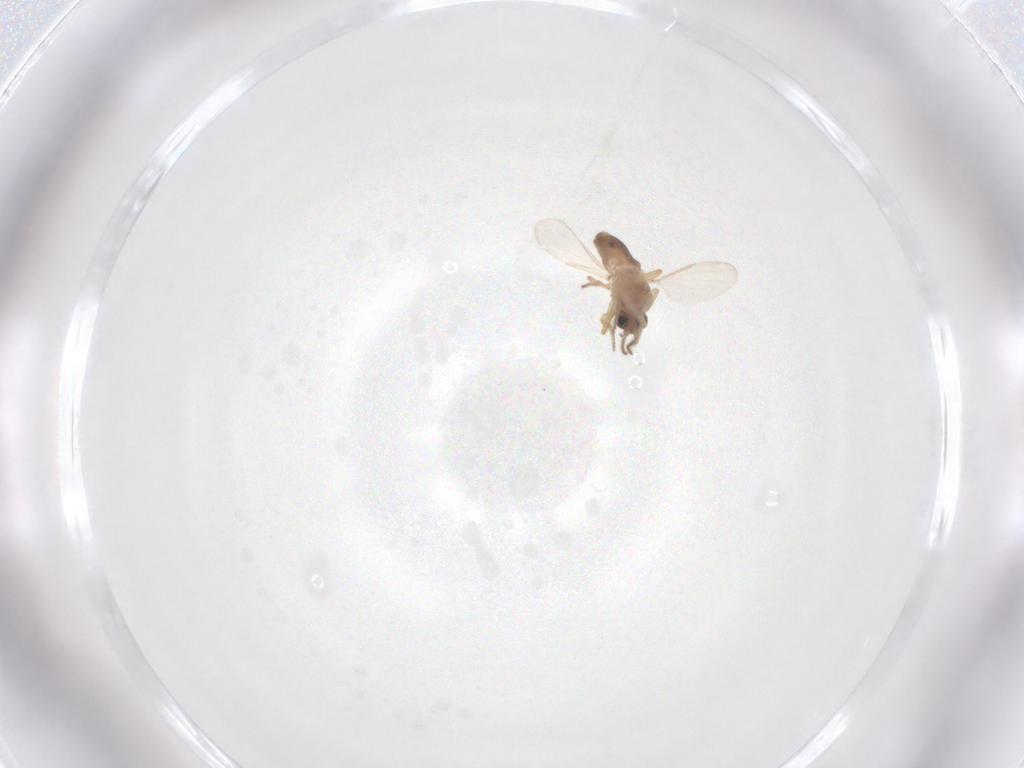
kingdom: Animalia
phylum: Arthropoda
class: Insecta
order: Diptera
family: Ceratopogonidae
